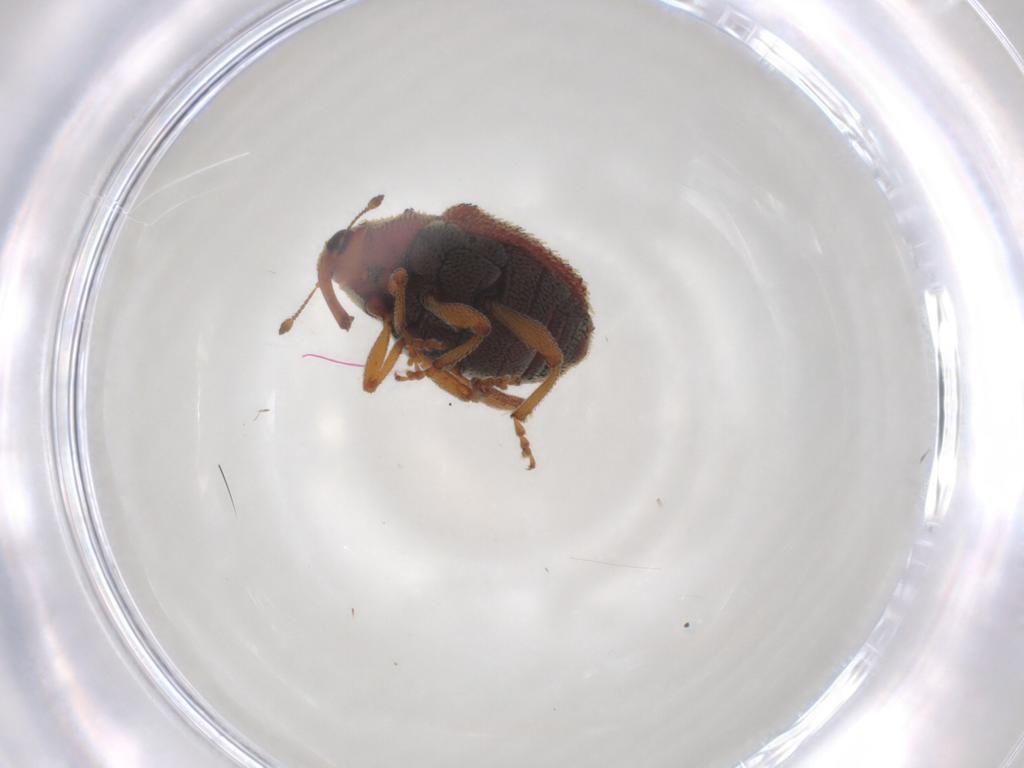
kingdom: Animalia
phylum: Arthropoda
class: Insecta
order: Coleoptera
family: Curculionidae
